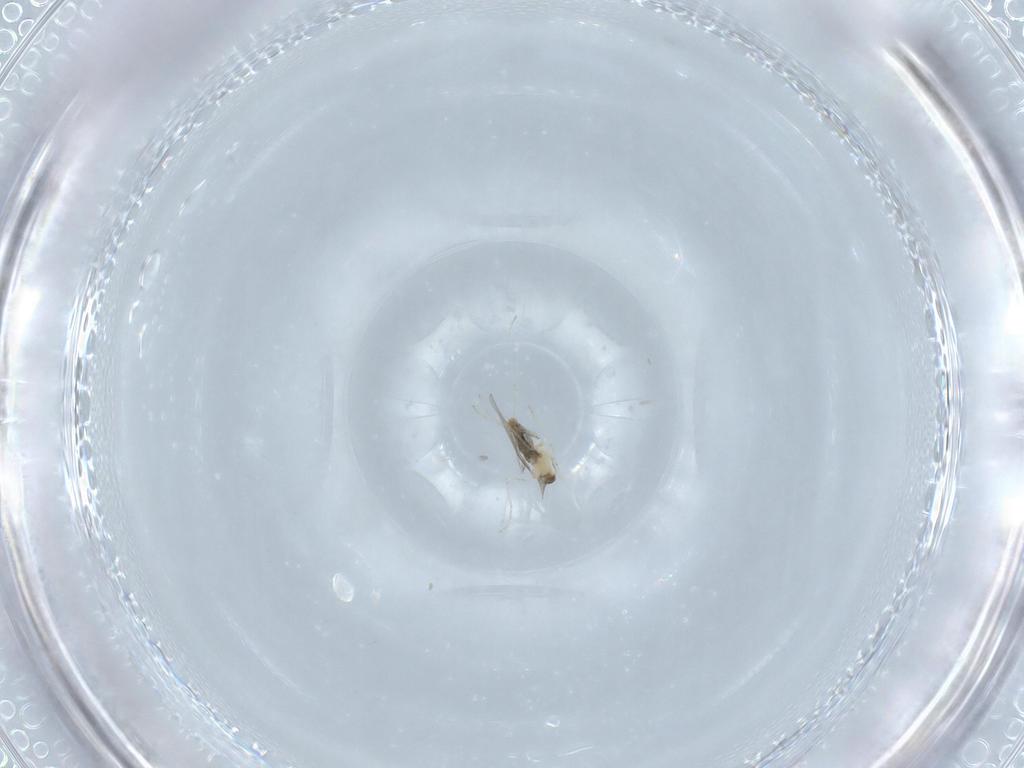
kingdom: Animalia
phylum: Arthropoda
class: Insecta
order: Diptera
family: Cecidomyiidae
